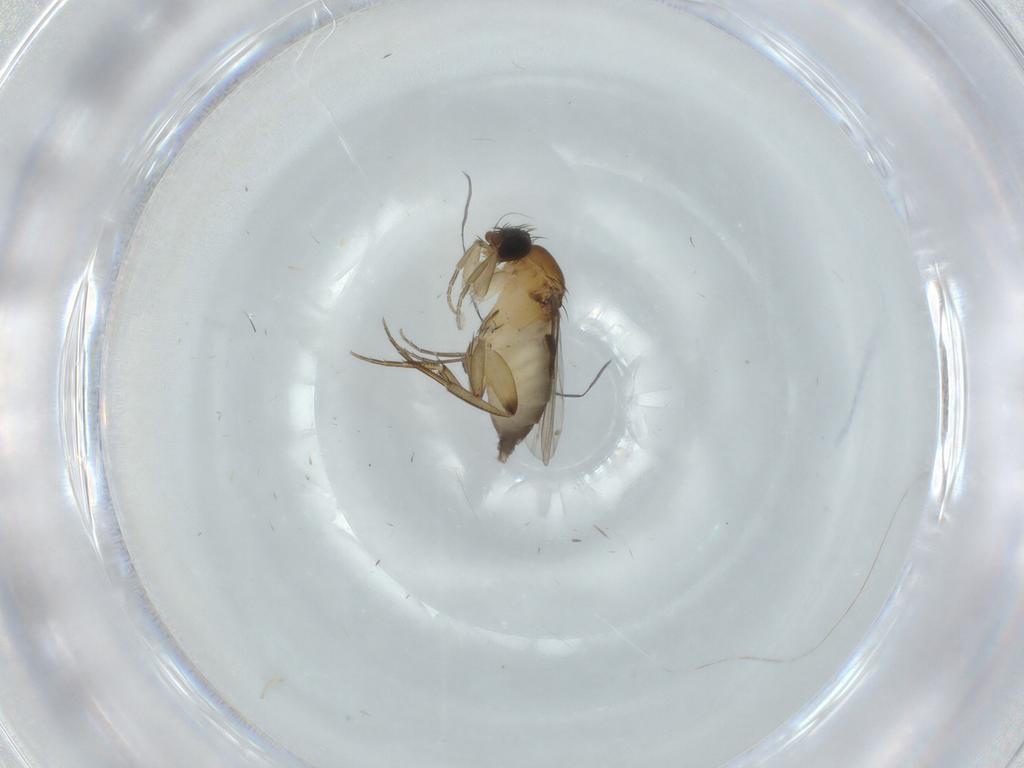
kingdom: Animalia
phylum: Arthropoda
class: Insecta
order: Diptera
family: Phoridae
